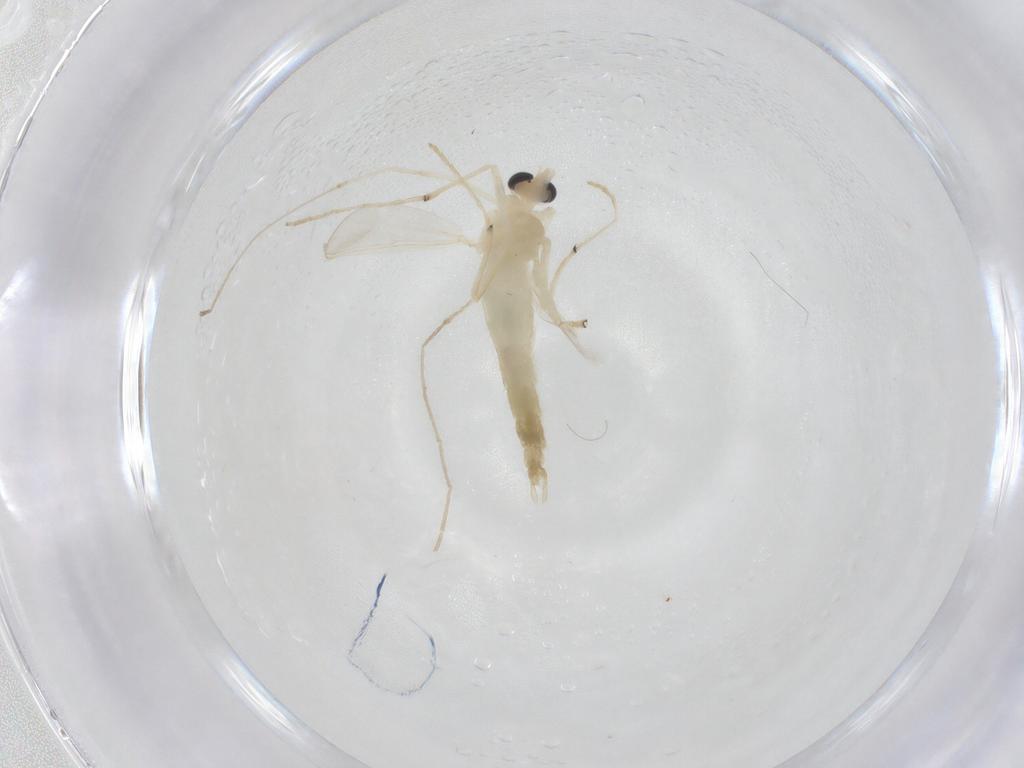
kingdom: Animalia
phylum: Arthropoda
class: Insecta
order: Diptera
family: Chironomidae
